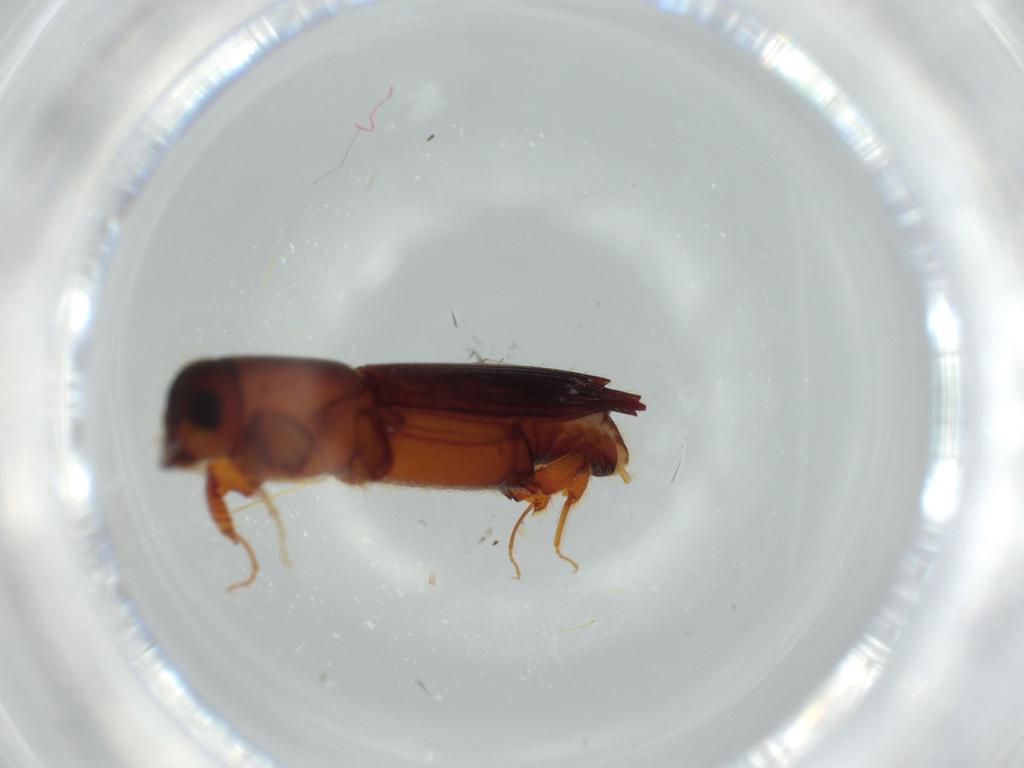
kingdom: Animalia
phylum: Arthropoda
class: Insecta
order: Coleoptera
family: Curculionidae
